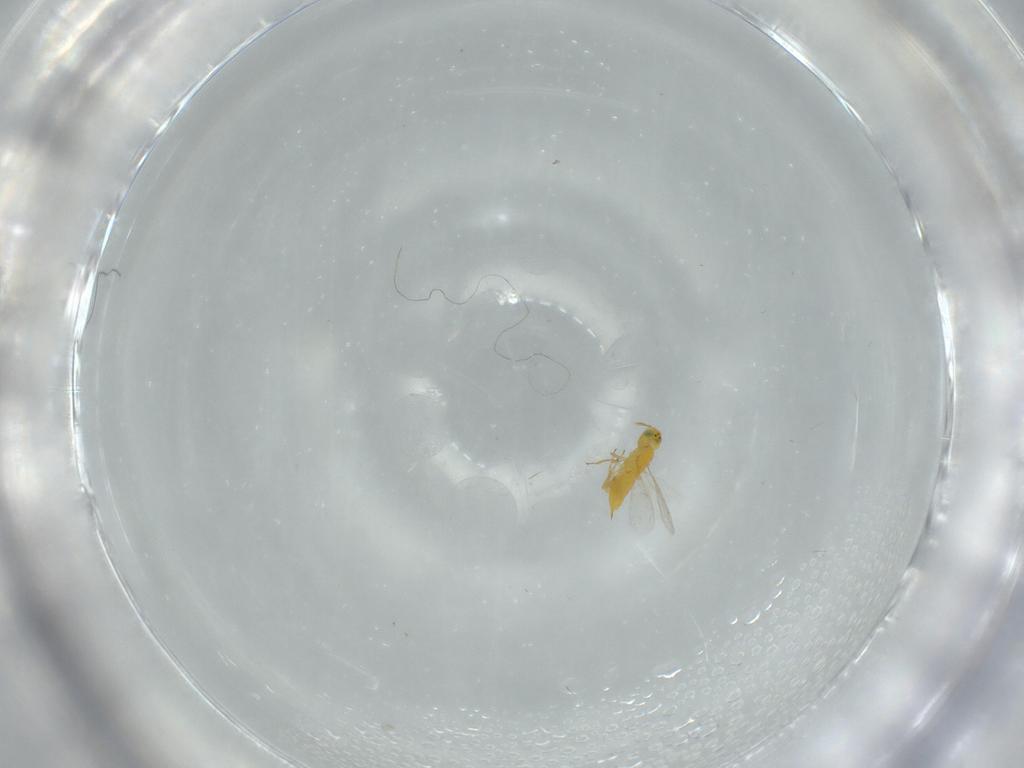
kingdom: Animalia
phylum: Arthropoda
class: Insecta
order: Hymenoptera
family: Aphelinidae
